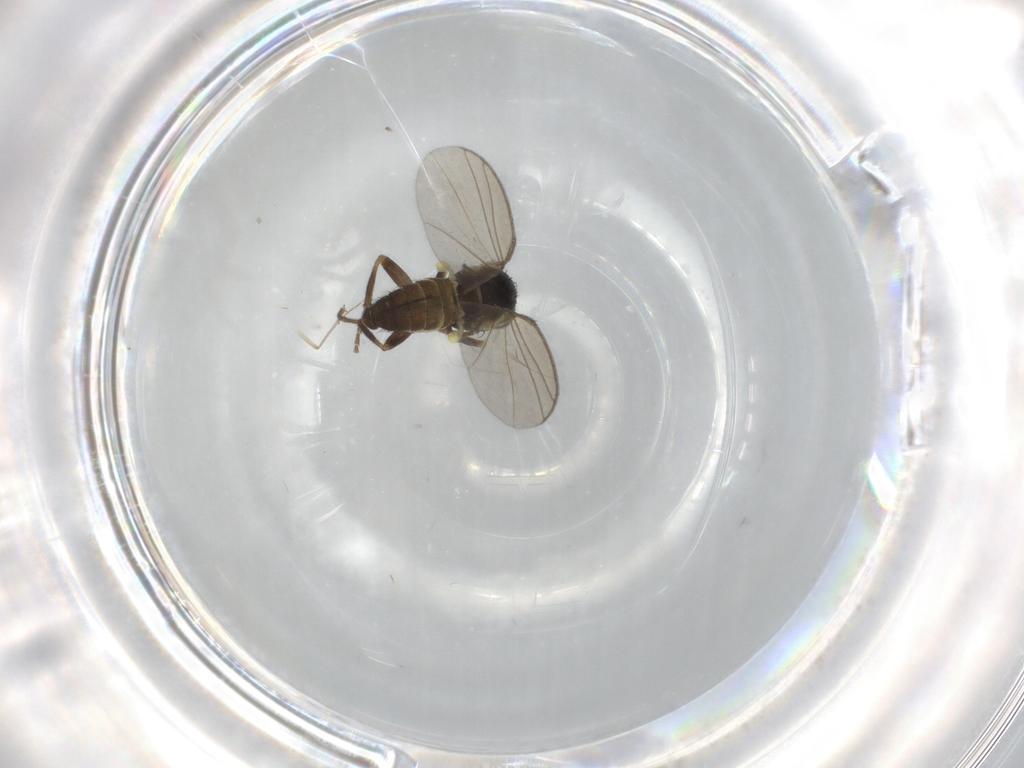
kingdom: Animalia
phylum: Arthropoda
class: Insecta
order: Diptera
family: Agromyzidae
